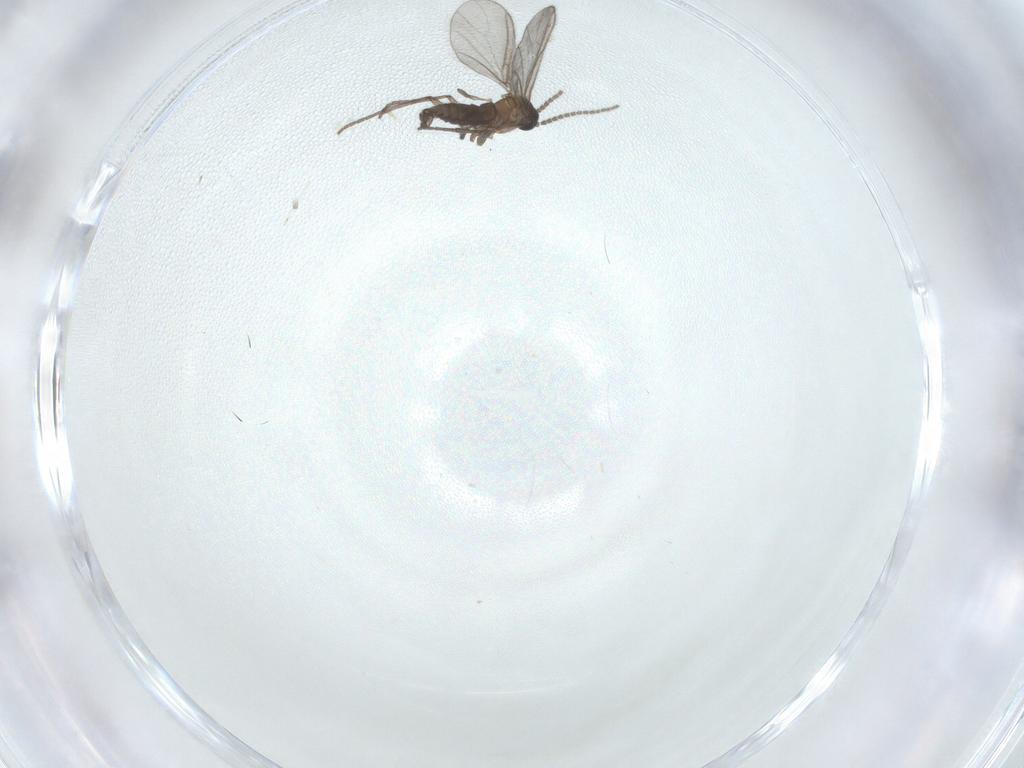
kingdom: Animalia
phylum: Arthropoda
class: Insecta
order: Diptera
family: Sciaridae
